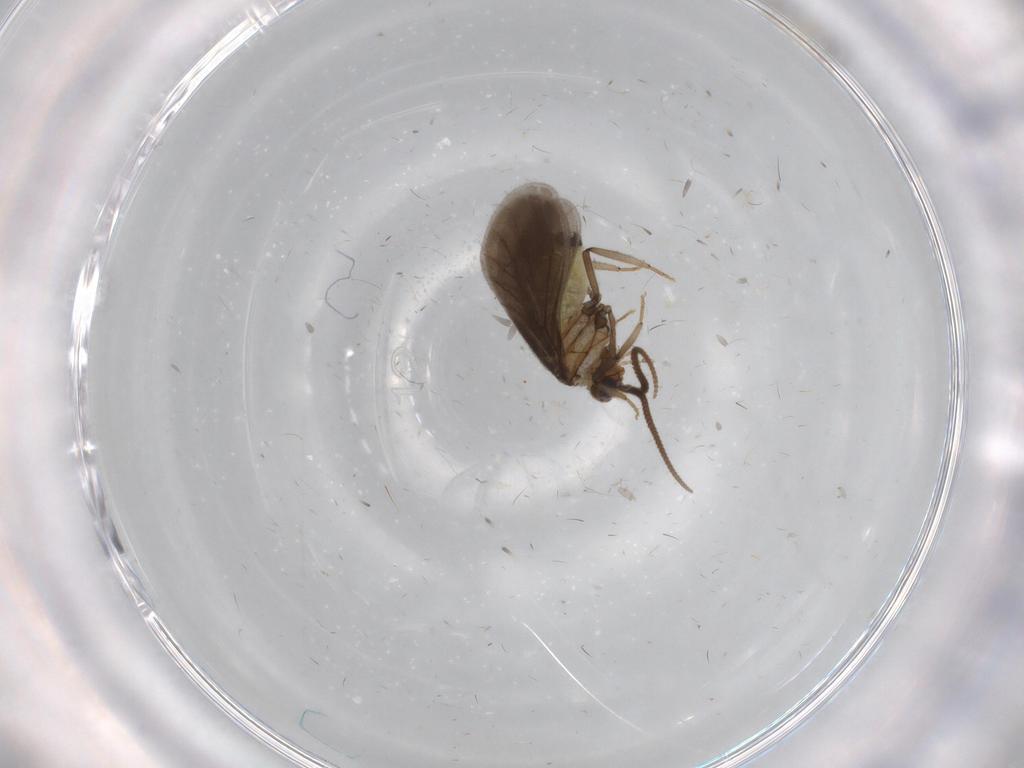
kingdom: Animalia
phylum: Arthropoda
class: Insecta
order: Neuroptera
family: Coniopterygidae
